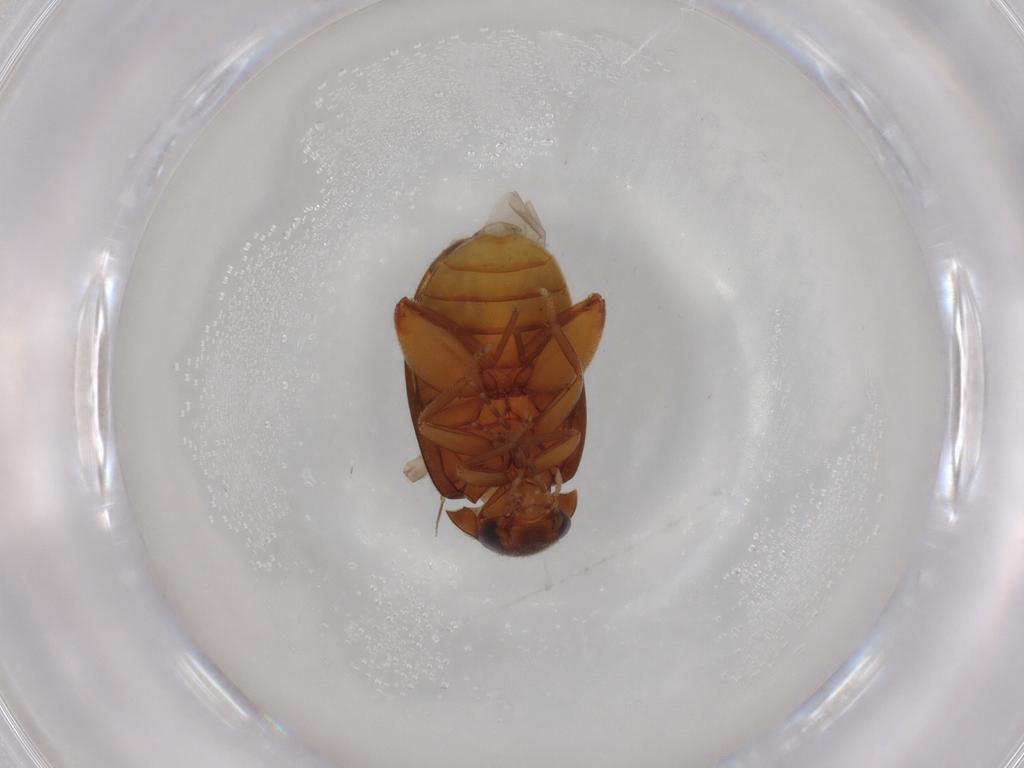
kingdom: Animalia
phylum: Arthropoda
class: Insecta
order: Coleoptera
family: Scirtidae
